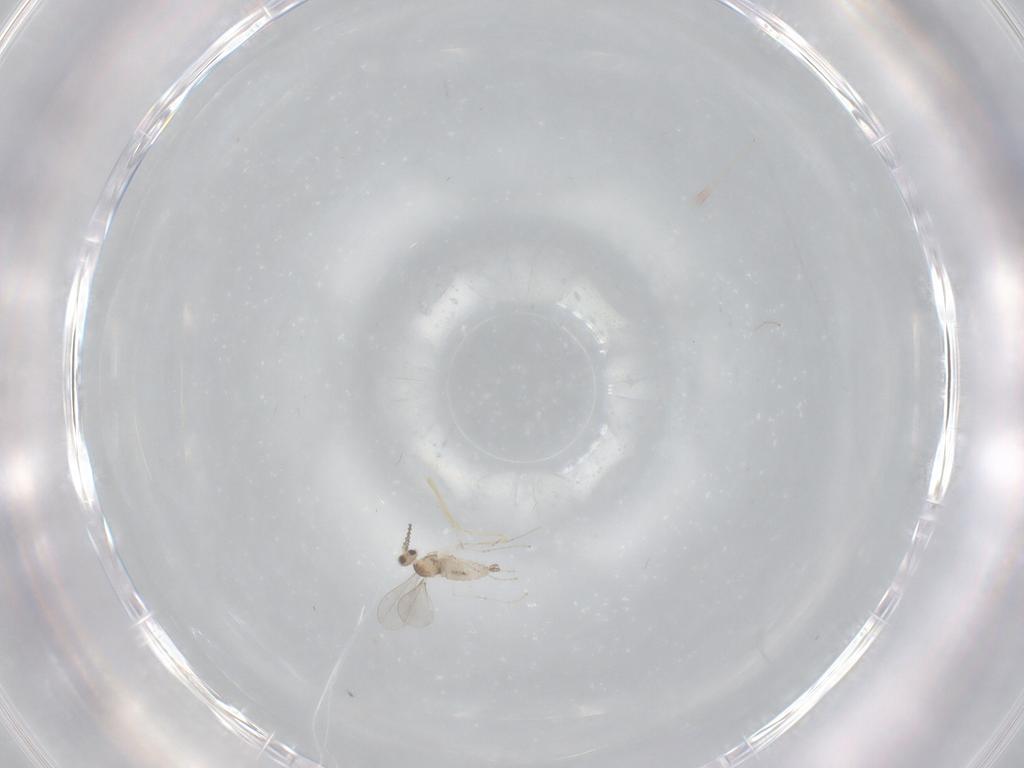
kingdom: Animalia
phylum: Arthropoda
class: Insecta
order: Diptera
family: Cecidomyiidae
